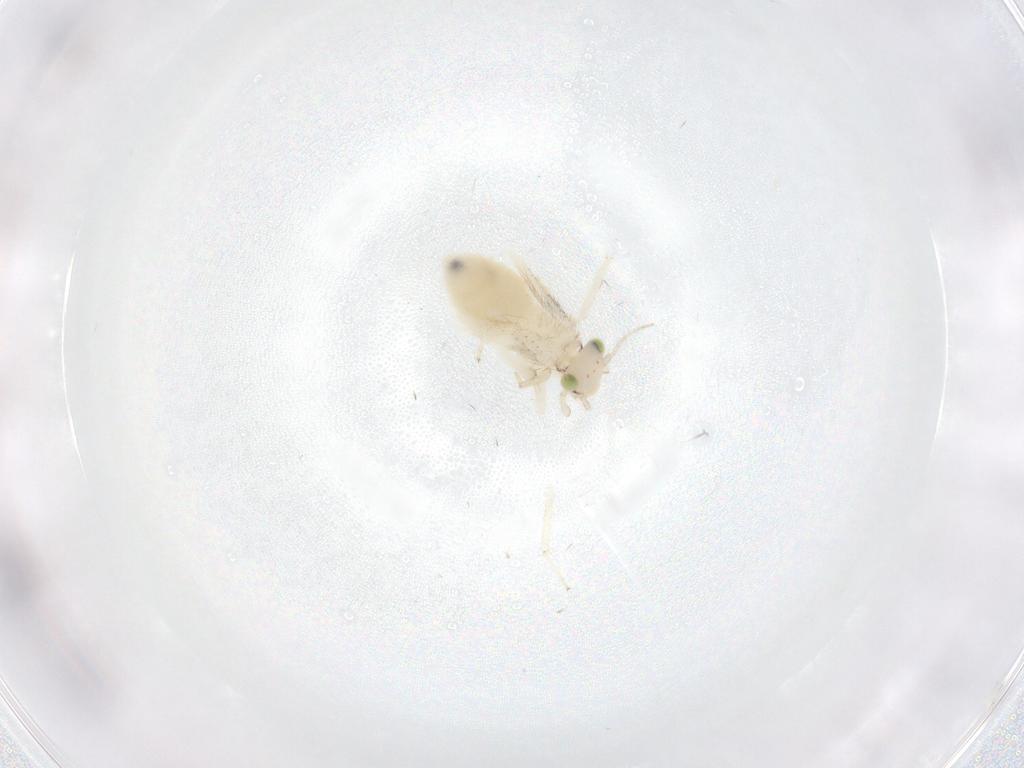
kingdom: Animalia
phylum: Arthropoda
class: Insecta
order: Psocodea
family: Lepidopsocidae
